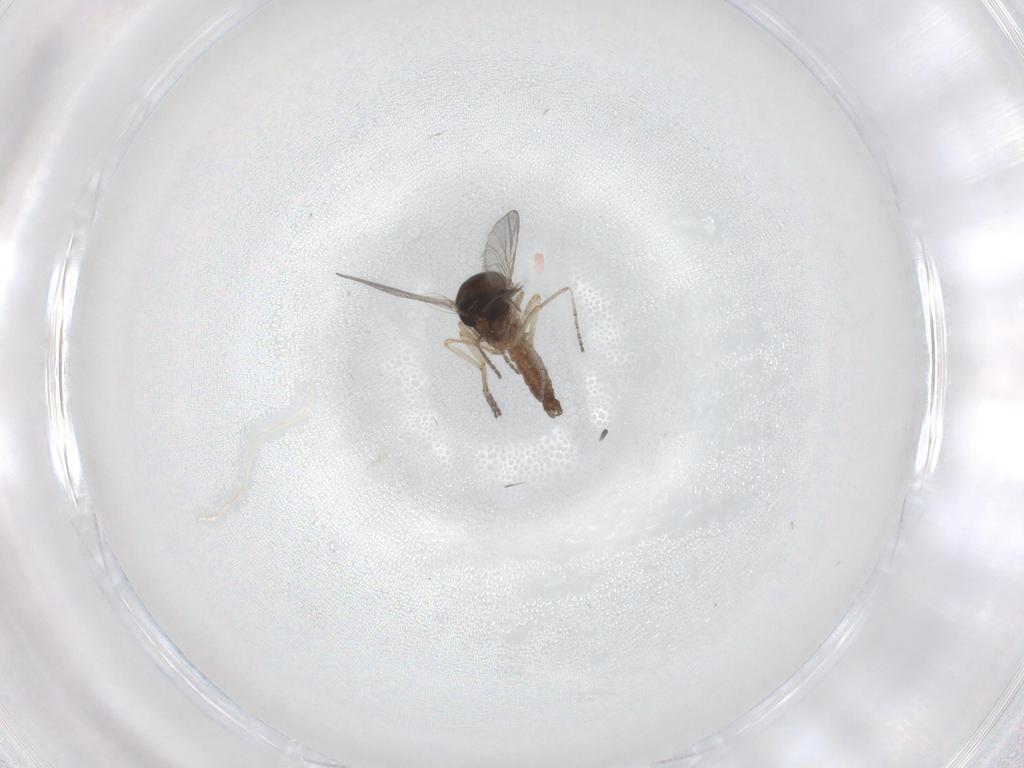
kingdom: Animalia
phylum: Arthropoda
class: Insecta
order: Diptera
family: Ceratopogonidae
